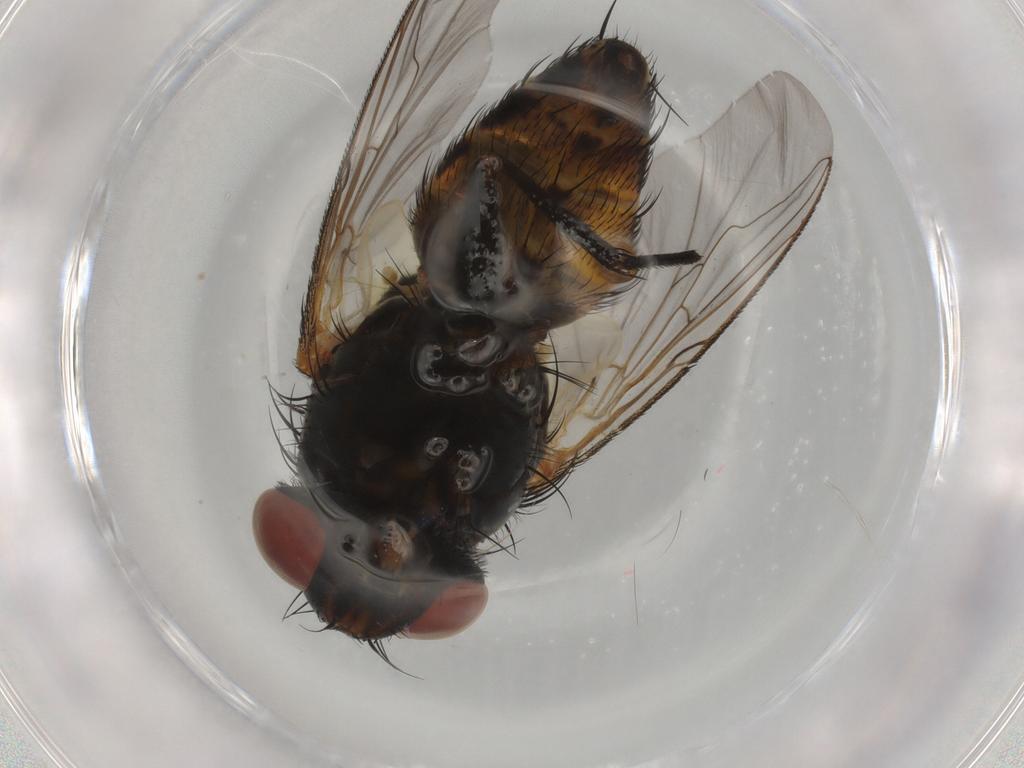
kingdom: Animalia
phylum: Arthropoda
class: Insecta
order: Diptera
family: Sarcophagidae
